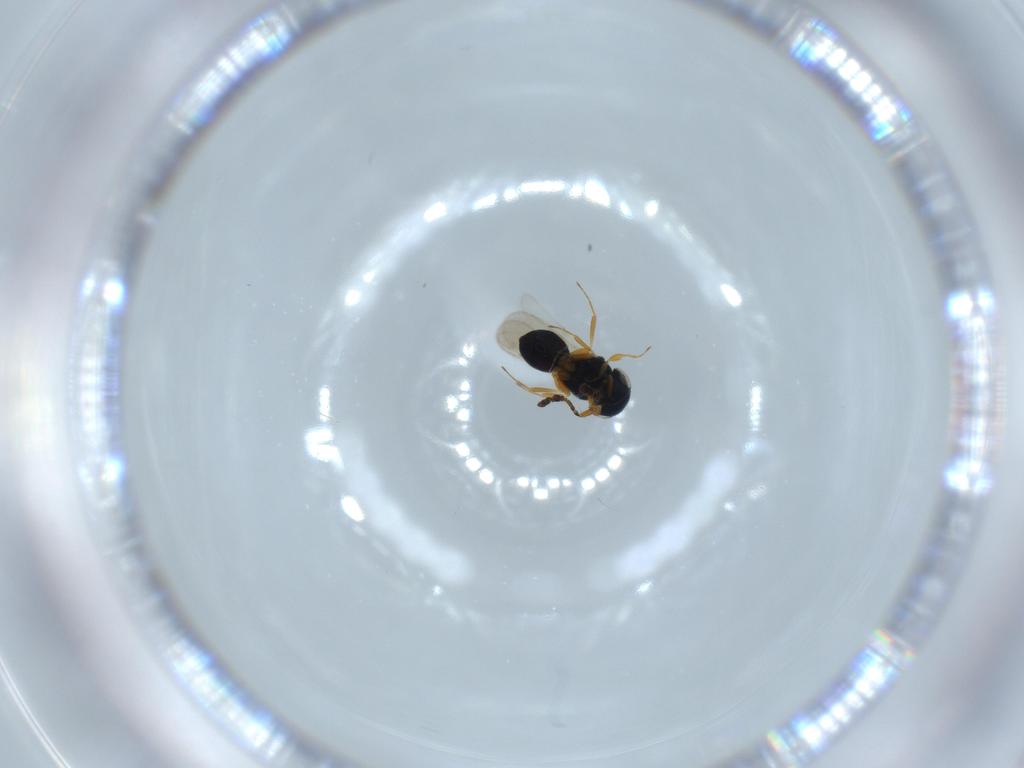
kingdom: Animalia
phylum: Arthropoda
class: Insecta
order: Hymenoptera
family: Scelionidae
